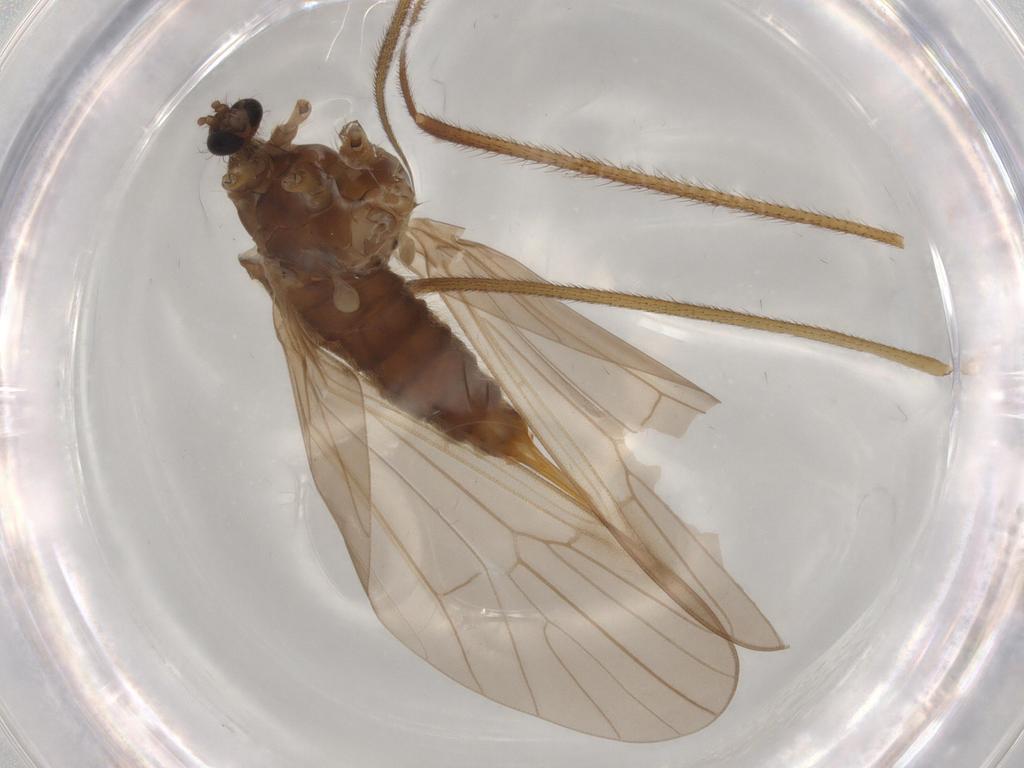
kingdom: Animalia
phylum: Arthropoda
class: Insecta
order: Diptera
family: Limoniidae
